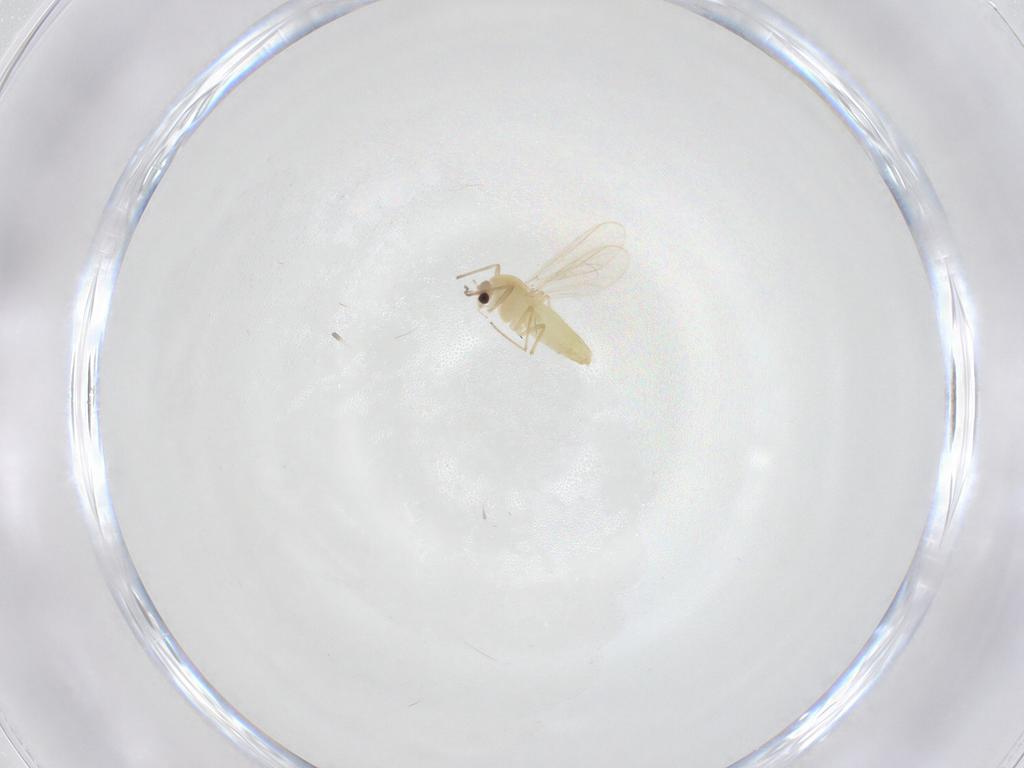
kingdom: Animalia
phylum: Arthropoda
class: Insecta
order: Diptera
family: Chironomidae
